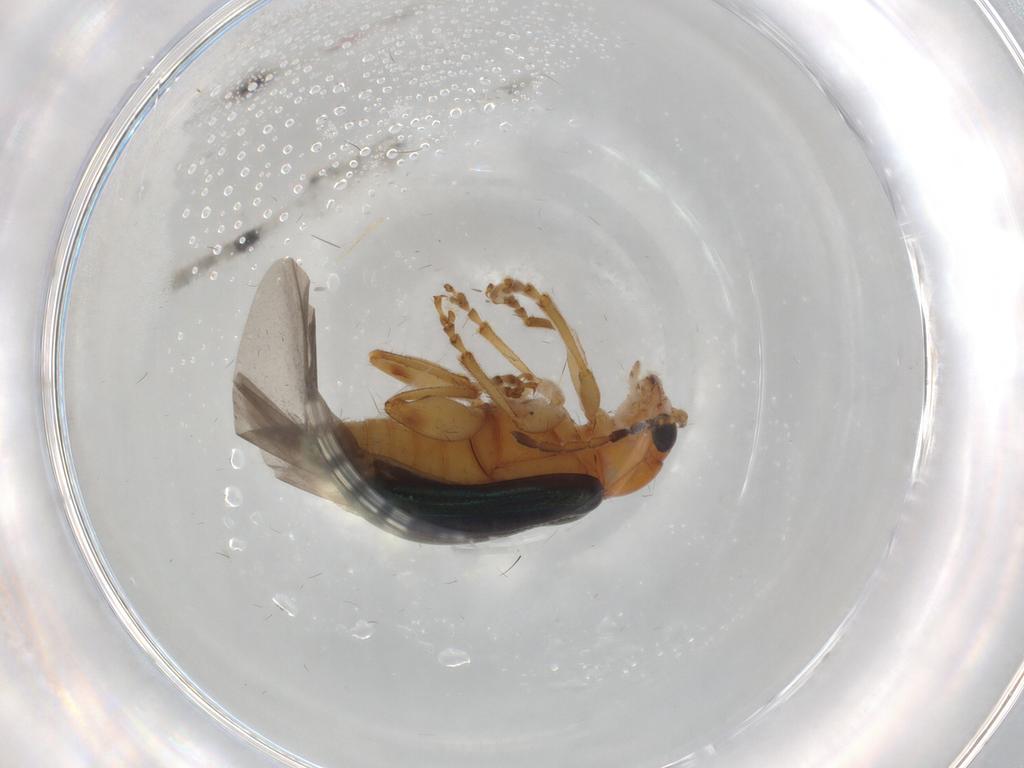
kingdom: Animalia
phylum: Arthropoda
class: Insecta
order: Coleoptera
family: Chrysomelidae
